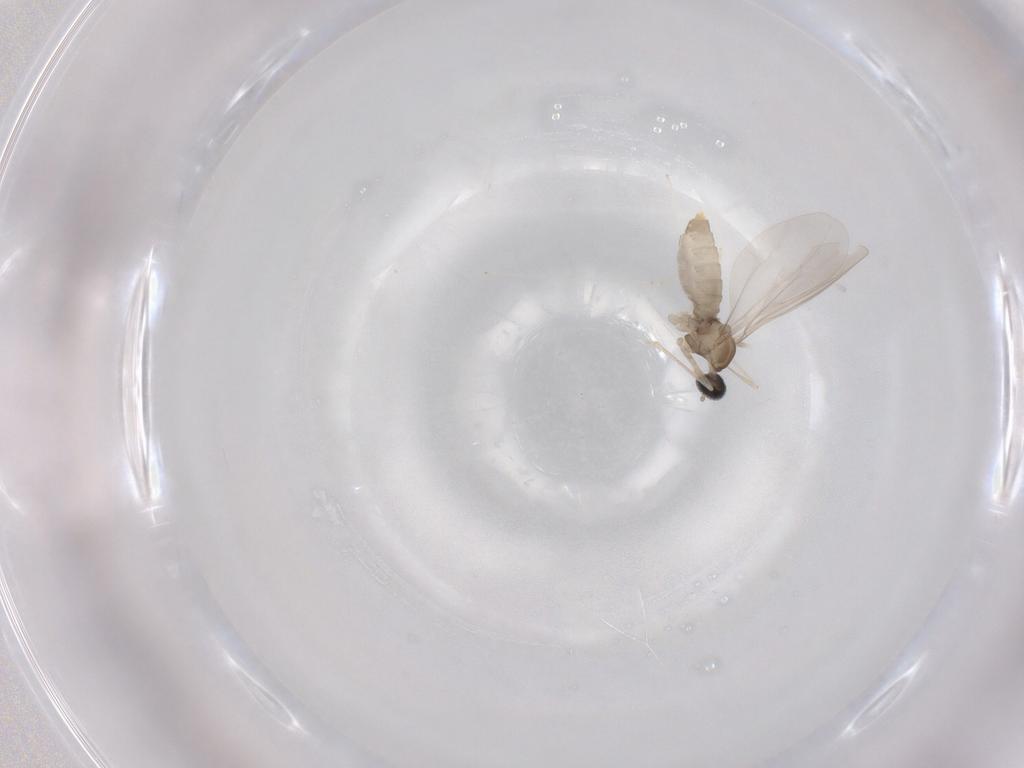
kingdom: Animalia
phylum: Arthropoda
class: Insecta
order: Diptera
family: Cecidomyiidae
